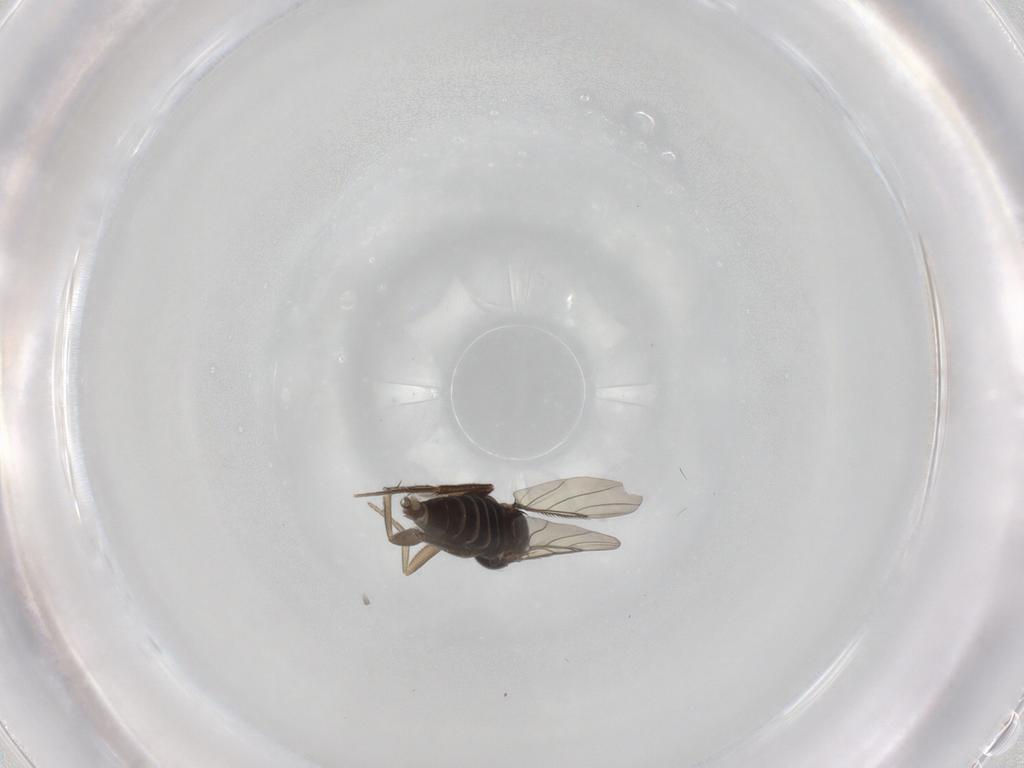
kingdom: Animalia
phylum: Arthropoda
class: Insecta
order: Diptera
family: Phoridae
